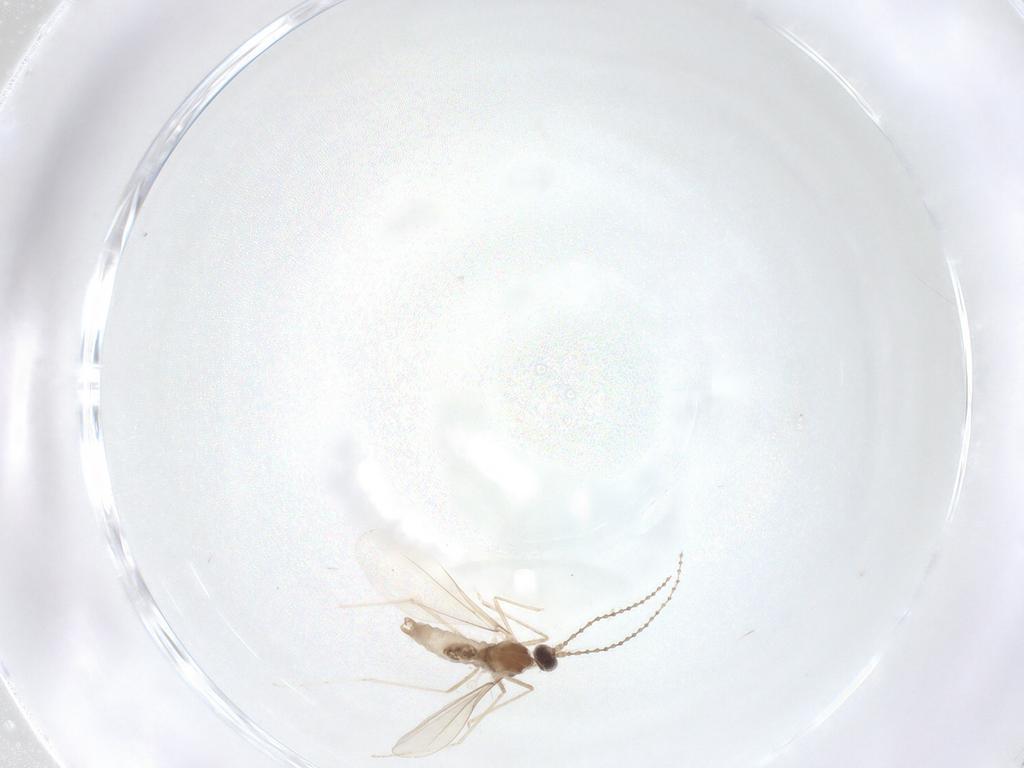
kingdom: Animalia
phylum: Arthropoda
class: Insecta
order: Diptera
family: Cecidomyiidae
